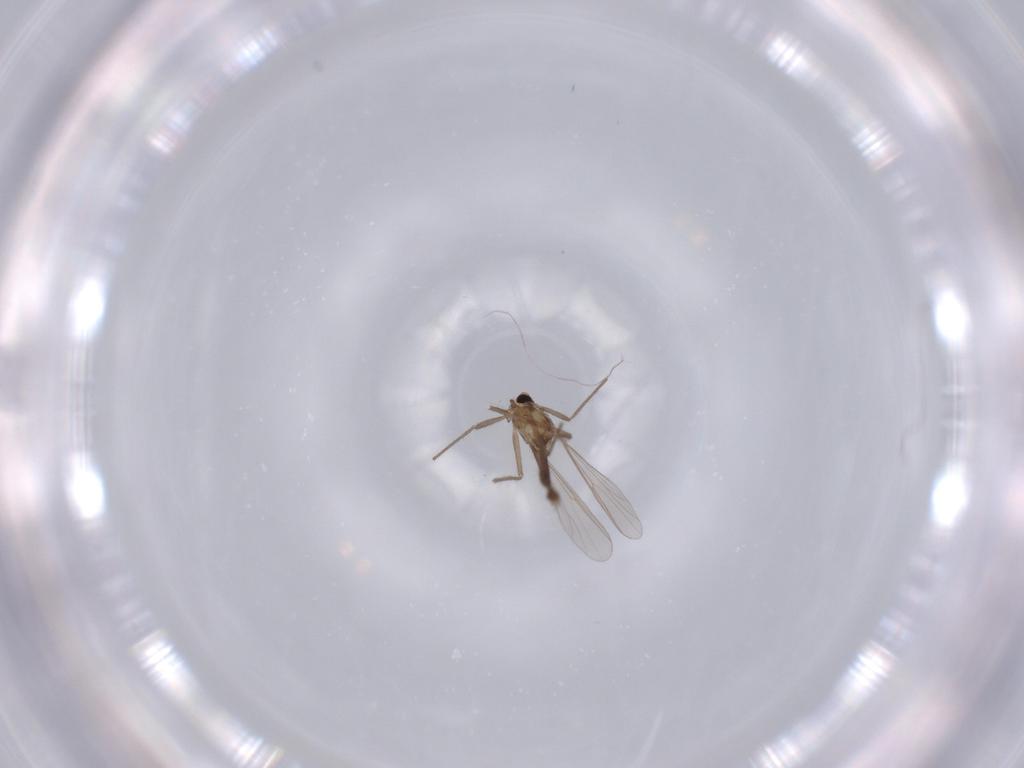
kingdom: Animalia
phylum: Arthropoda
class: Insecta
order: Diptera
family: Chironomidae
